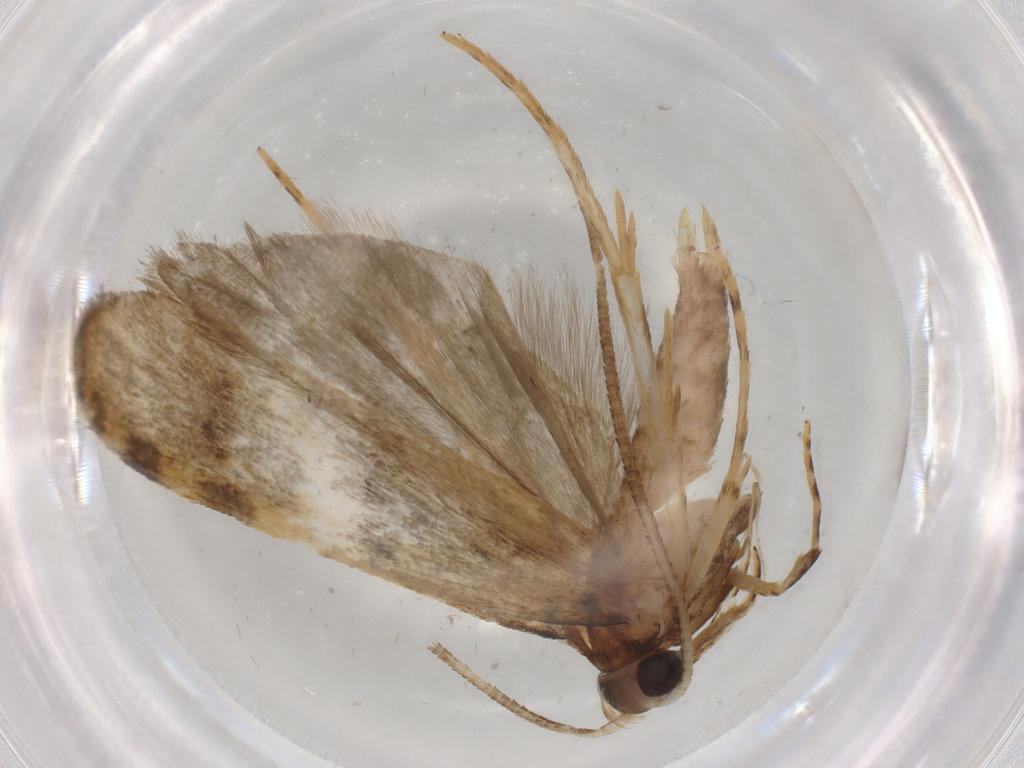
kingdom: Animalia
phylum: Arthropoda
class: Insecta
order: Lepidoptera
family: Autostichidae
